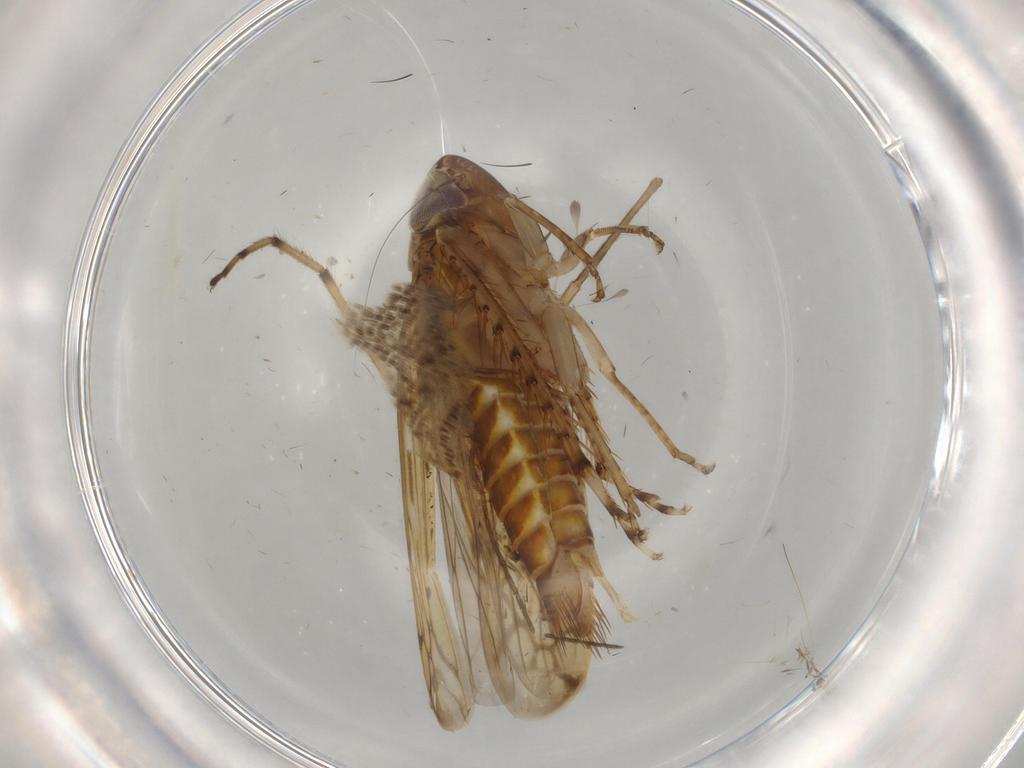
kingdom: Animalia
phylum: Arthropoda
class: Insecta
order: Hemiptera
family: Cicadellidae
